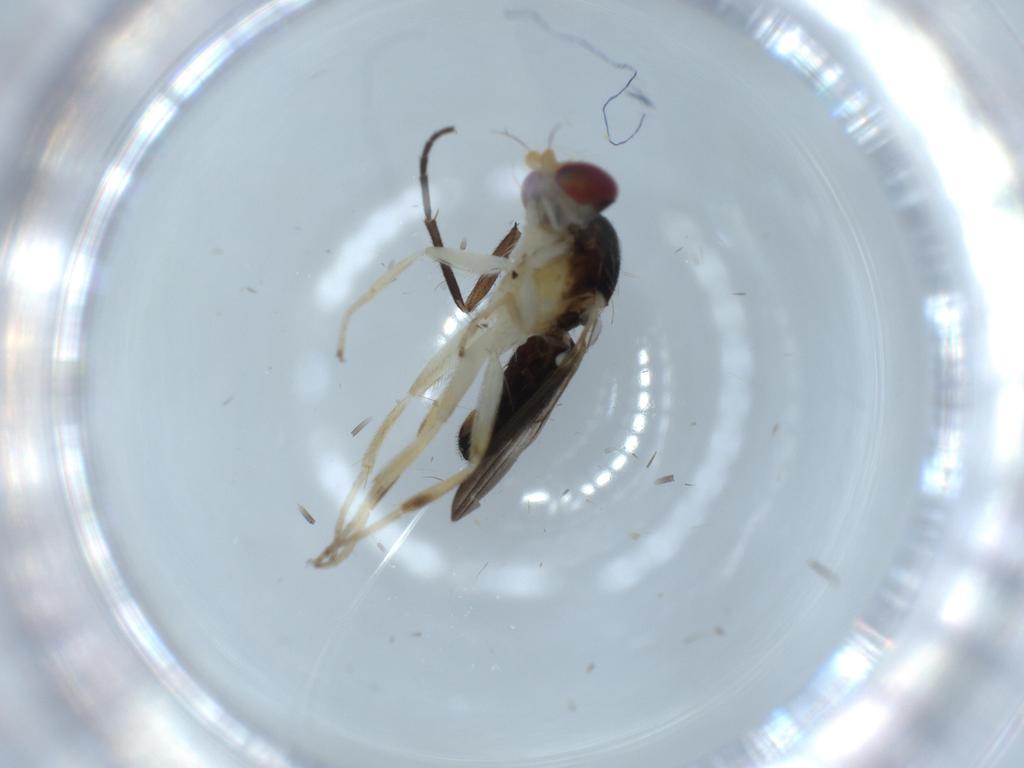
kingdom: Animalia
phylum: Arthropoda
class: Insecta
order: Diptera
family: Clusiidae
